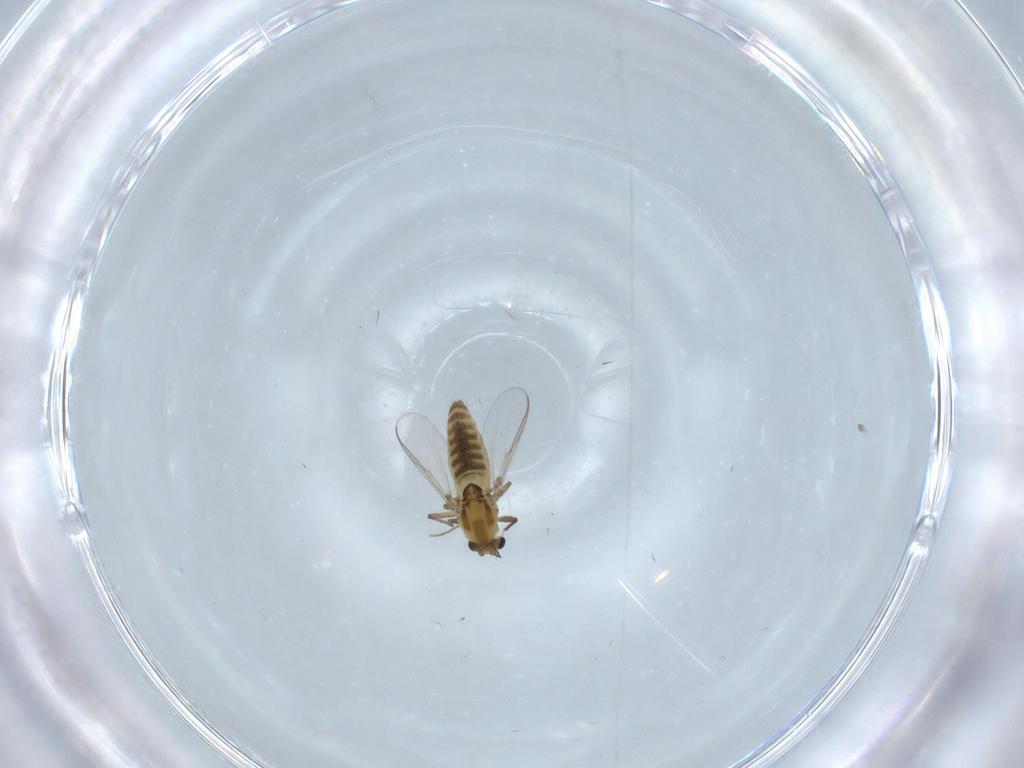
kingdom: Animalia
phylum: Arthropoda
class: Insecta
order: Diptera
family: Chironomidae
